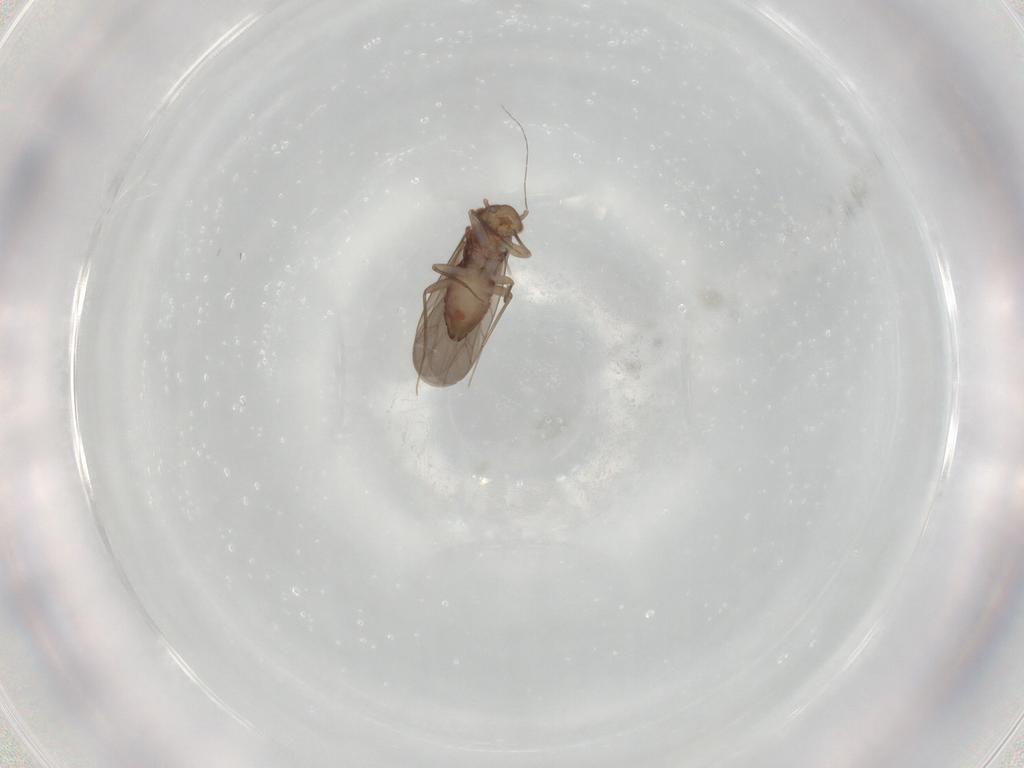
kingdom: Animalia
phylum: Arthropoda
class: Insecta
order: Psocodea
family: Lepidopsocidae
